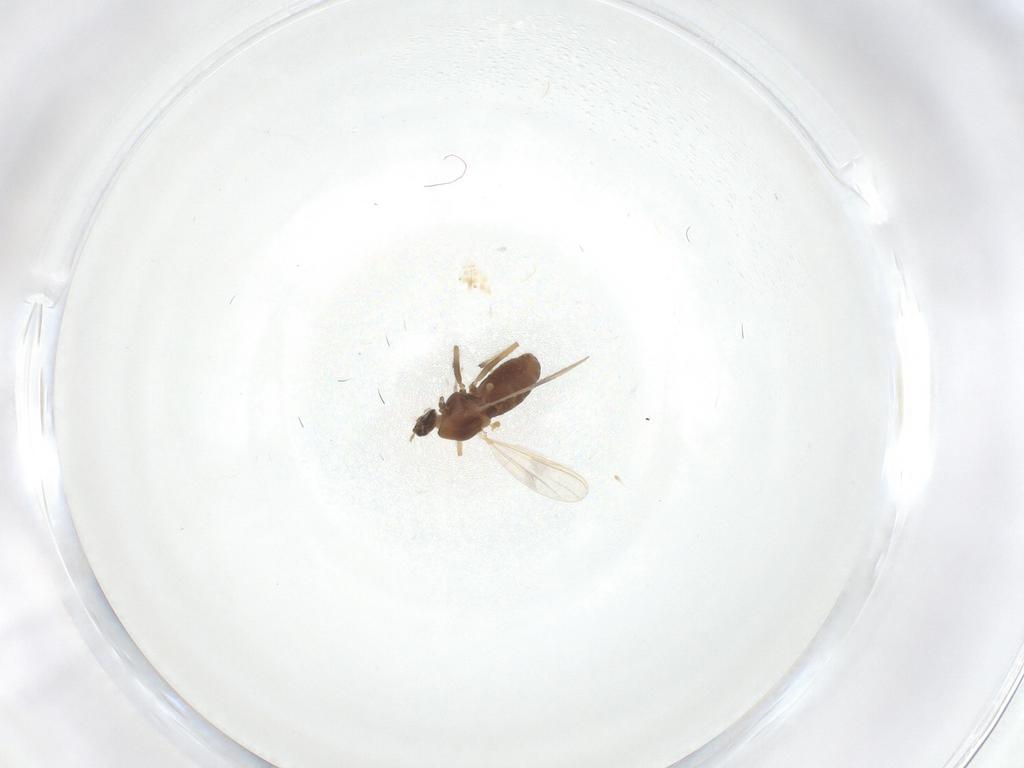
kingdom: Animalia
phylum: Arthropoda
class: Insecta
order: Diptera
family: Chironomidae
